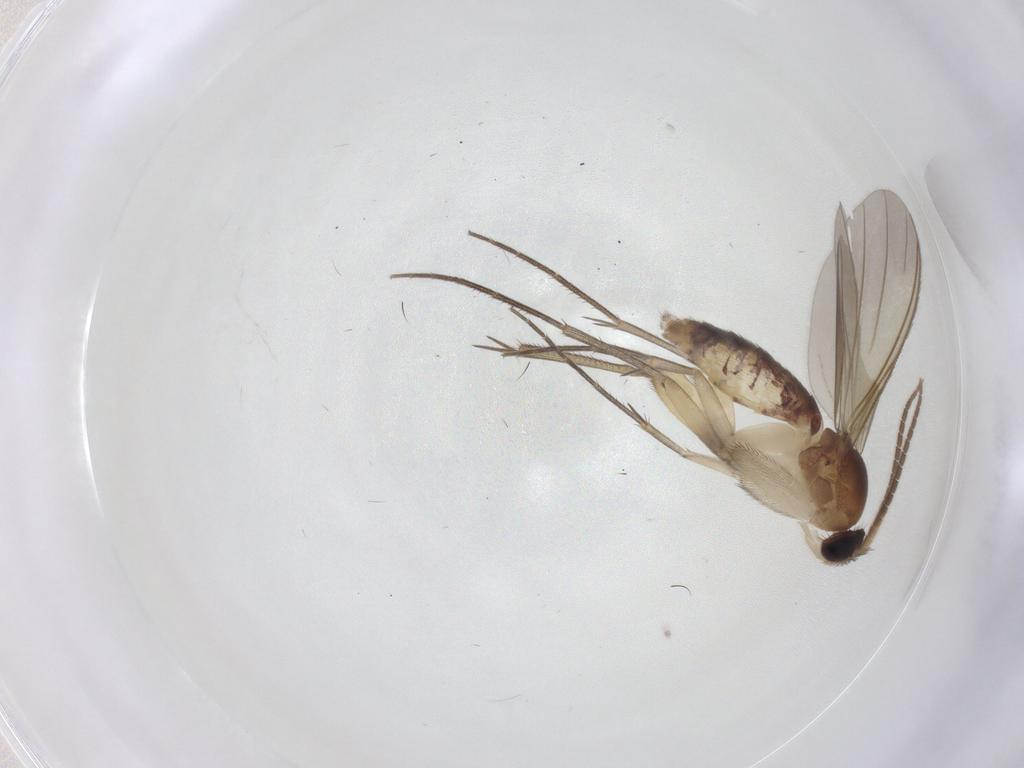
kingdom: Animalia
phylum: Arthropoda
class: Insecta
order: Diptera
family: Mycetophilidae
